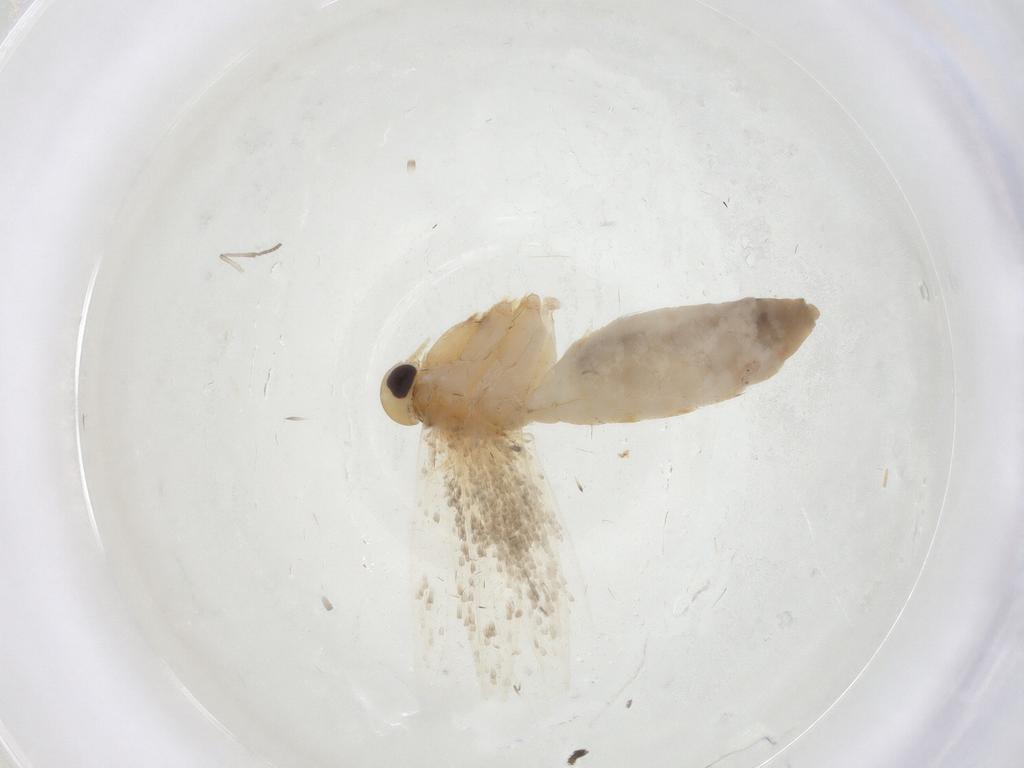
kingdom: Animalia
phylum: Arthropoda
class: Insecta
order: Lepidoptera
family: Erebidae
